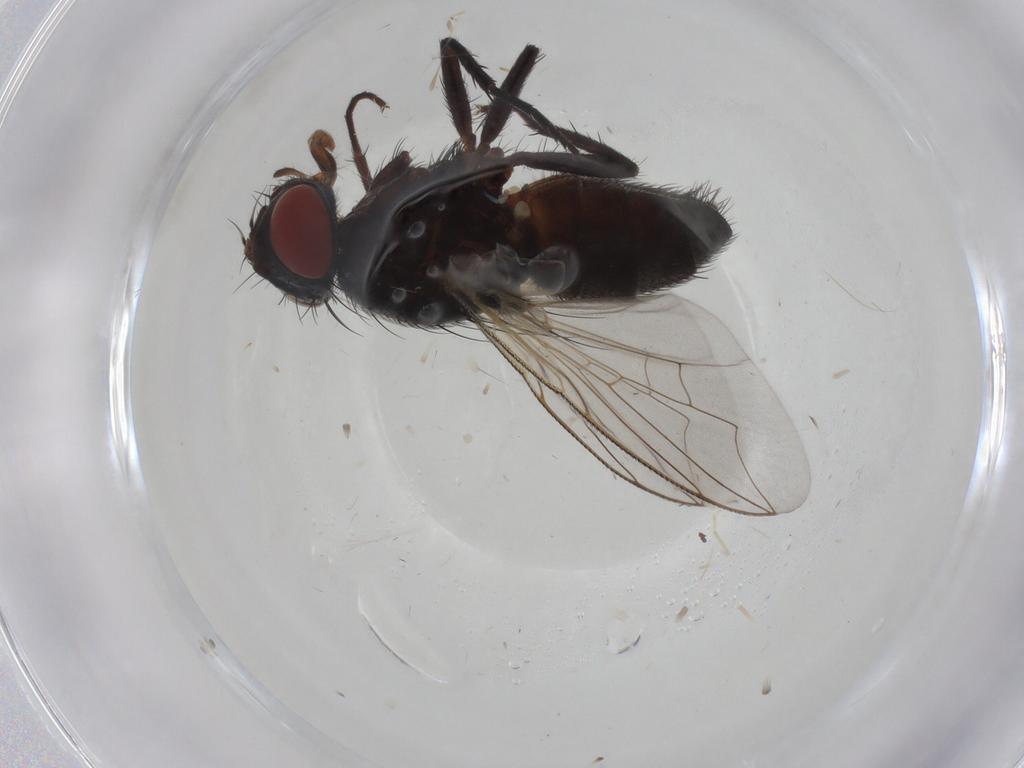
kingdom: Animalia
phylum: Arthropoda
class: Insecta
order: Diptera
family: Sarcophagidae
